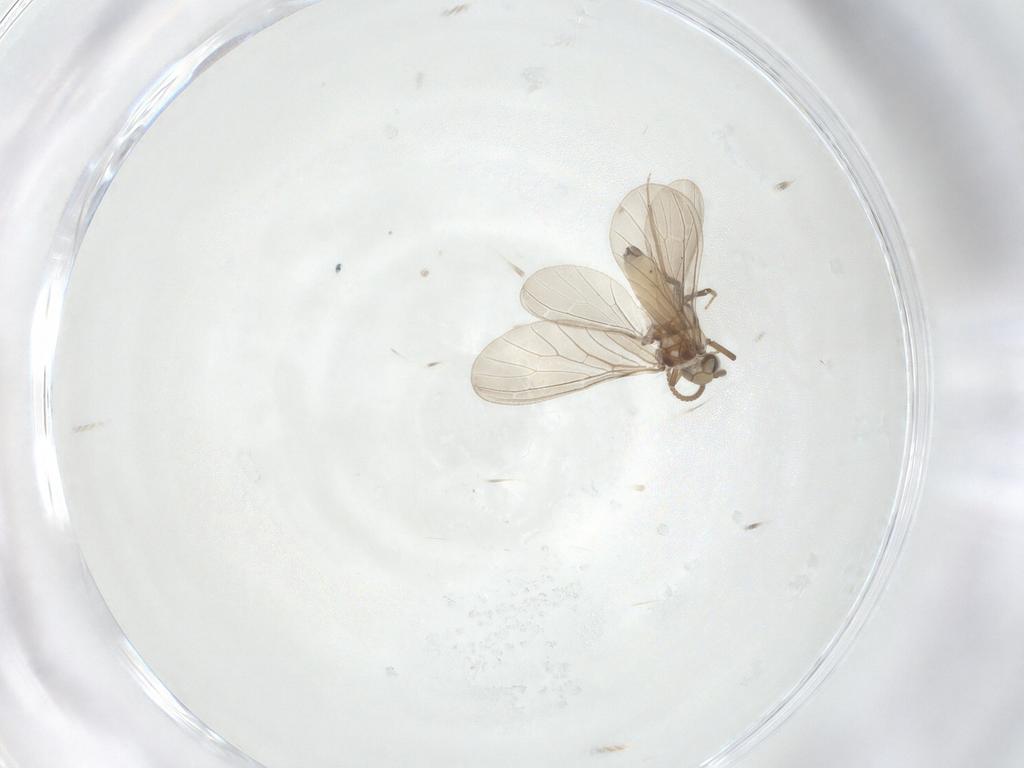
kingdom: Animalia
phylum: Arthropoda
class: Insecta
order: Neuroptera
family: Coniopterygidae
